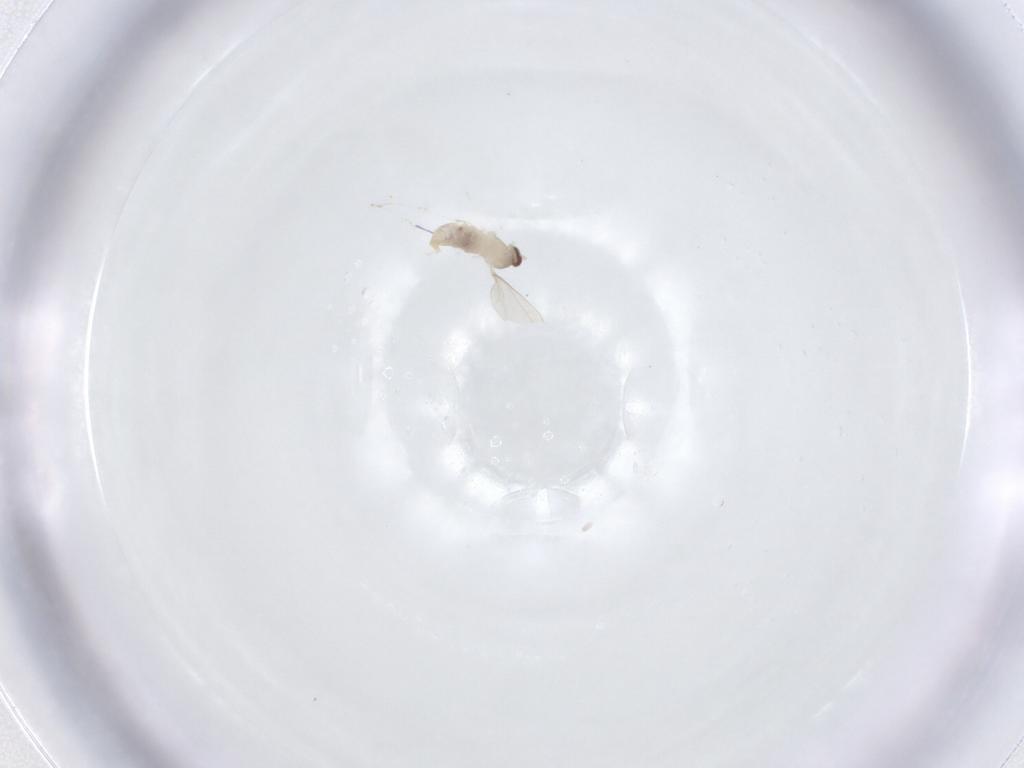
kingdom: Animalia
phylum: Arthropoda
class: Insecta
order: Diptera
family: Cecidomyiidae
